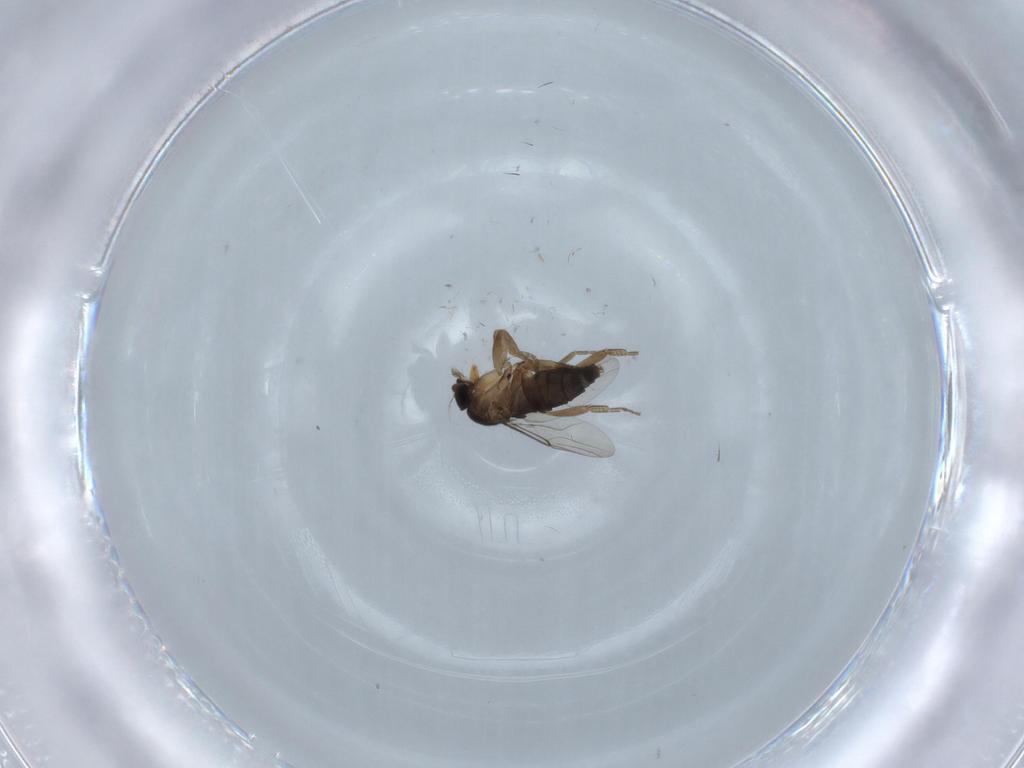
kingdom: Animalia
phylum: Arthropoda
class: Insecta
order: Diptera
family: Phoridae
